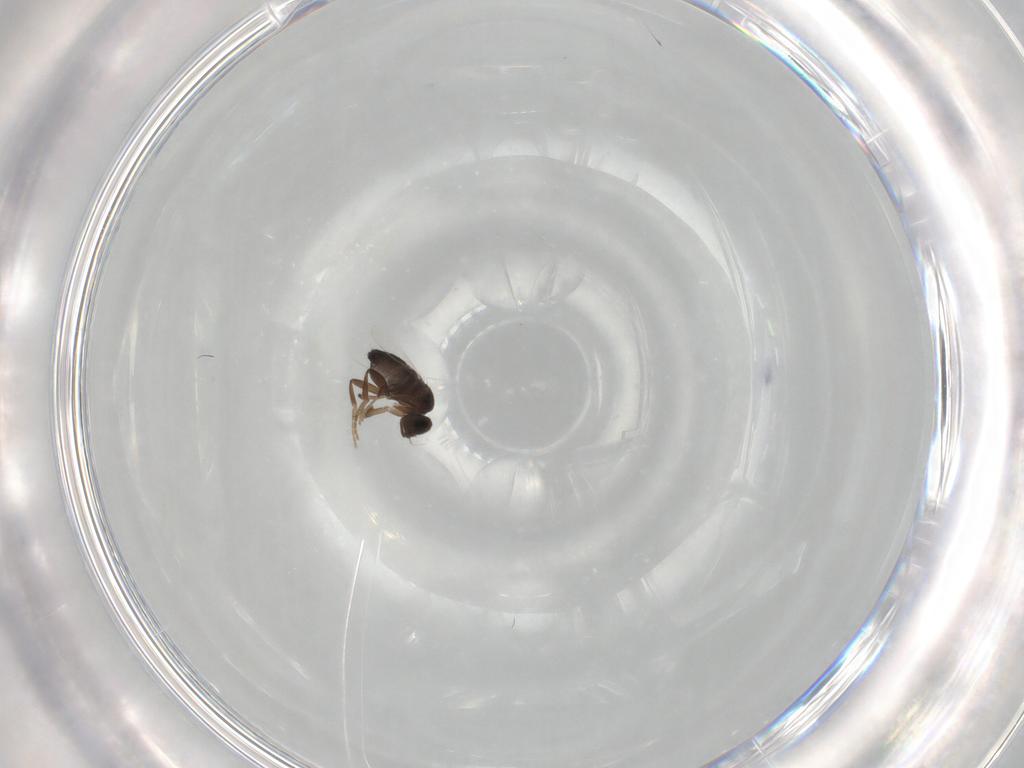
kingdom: Animalia
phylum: Arthropoda
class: Insecta
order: Diptera
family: Phoridae
